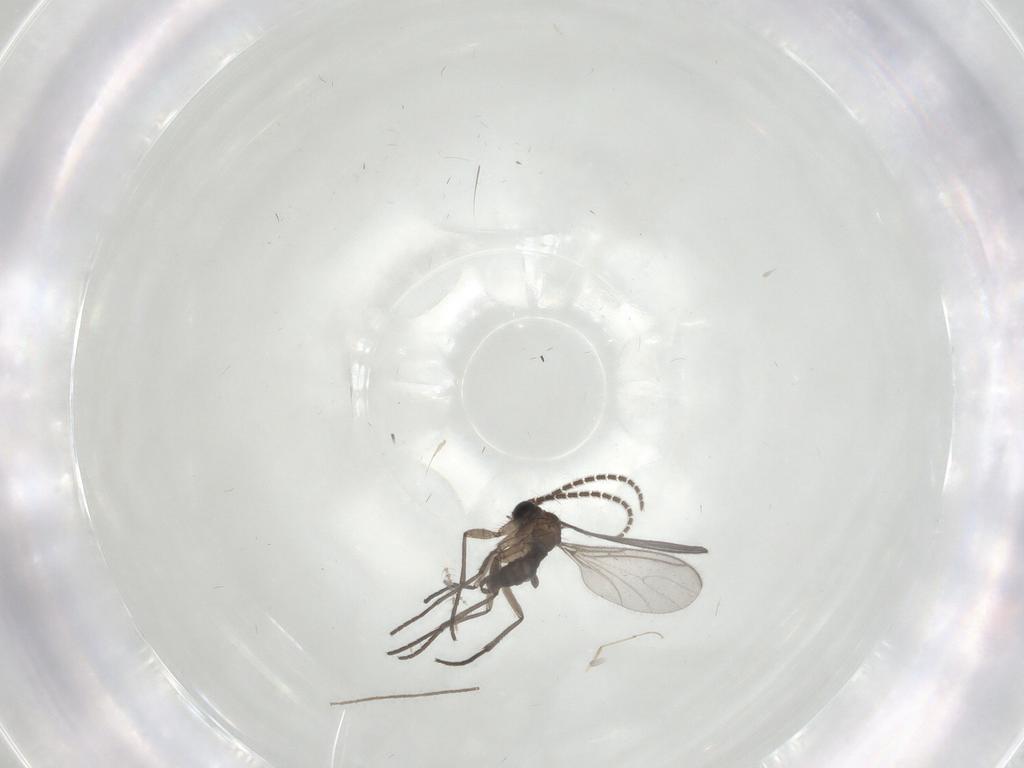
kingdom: Animalia
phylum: Arthropoda
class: Insecta
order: Diptera
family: Sciaridae
